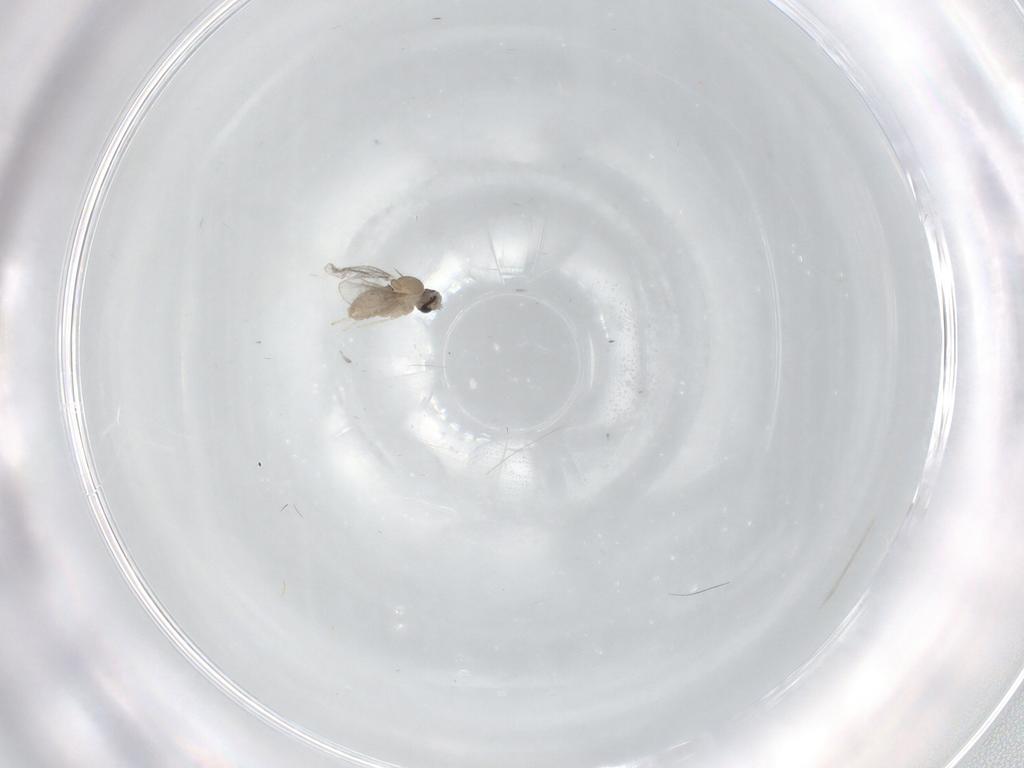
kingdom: Animalia
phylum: Arthropoda
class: Insecta
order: Diptera
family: Cecidomyiidae
